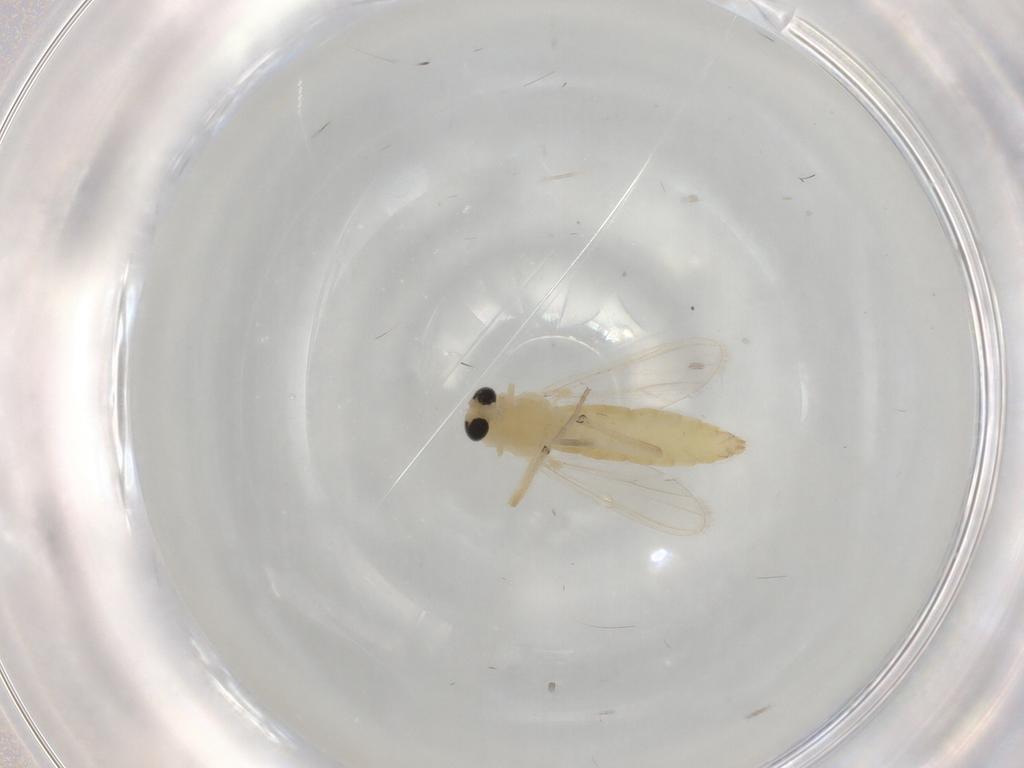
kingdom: Animalia
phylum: Arthropoda
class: Insecta
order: Diptera
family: Chironomidae
